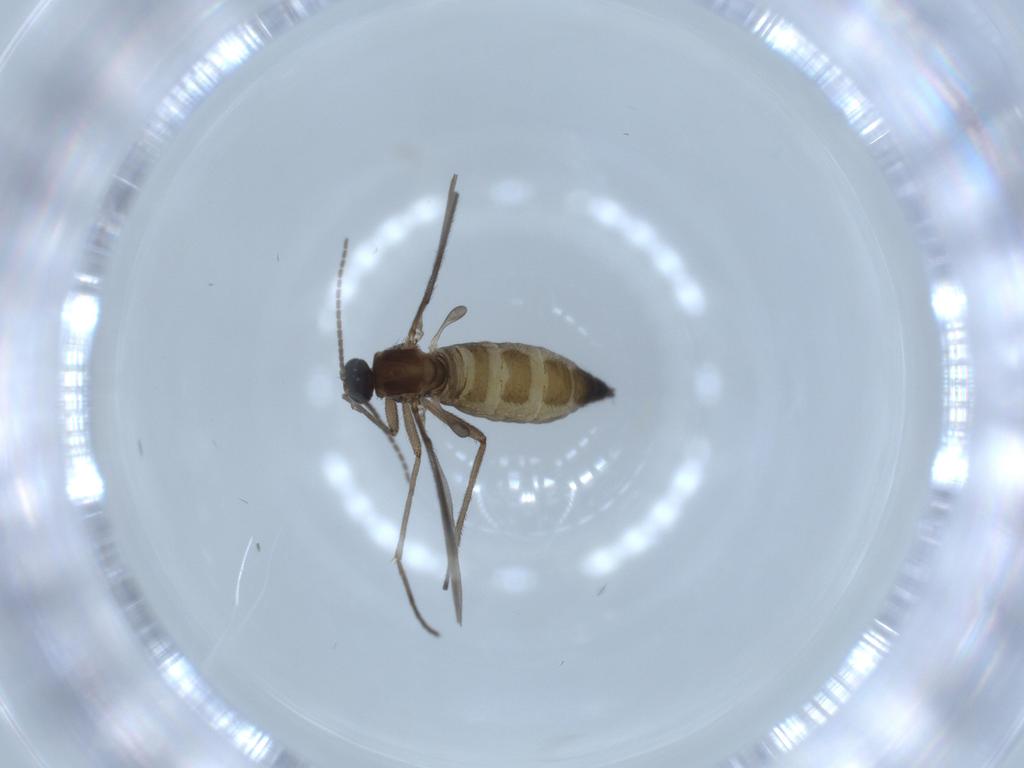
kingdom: Animalia
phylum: Arthropoda
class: Insecta
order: Diptera
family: Sciaridae
